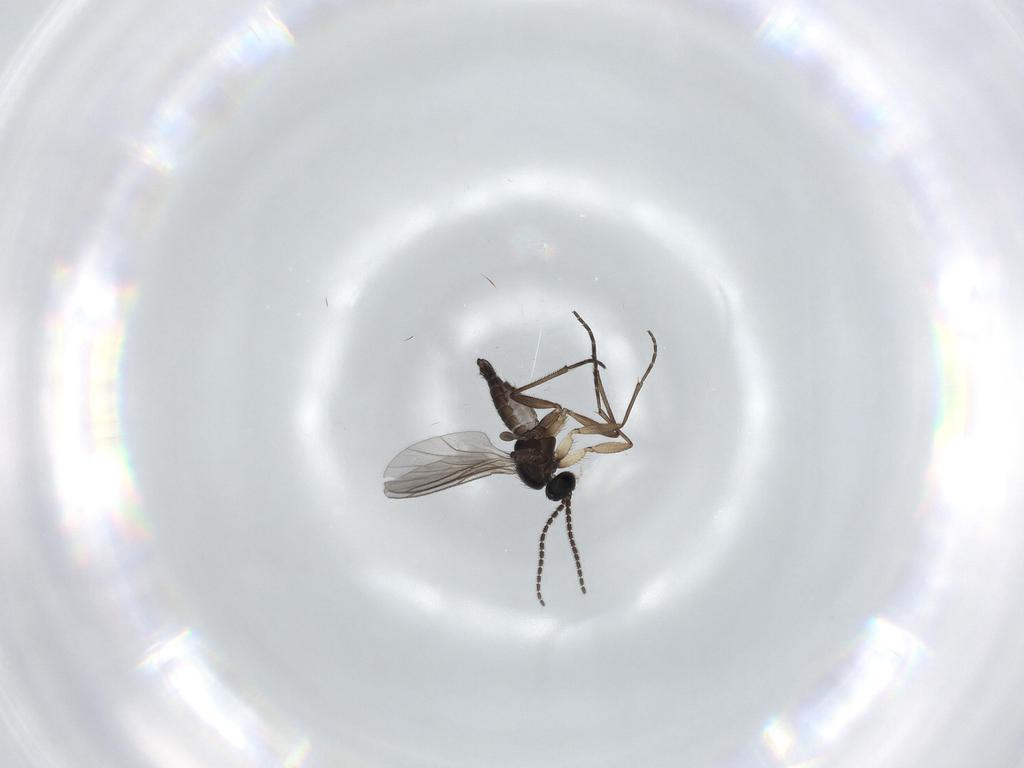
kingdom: Animalia
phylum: Arthropoda
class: Insecta
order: Diptera
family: Sciaridae
